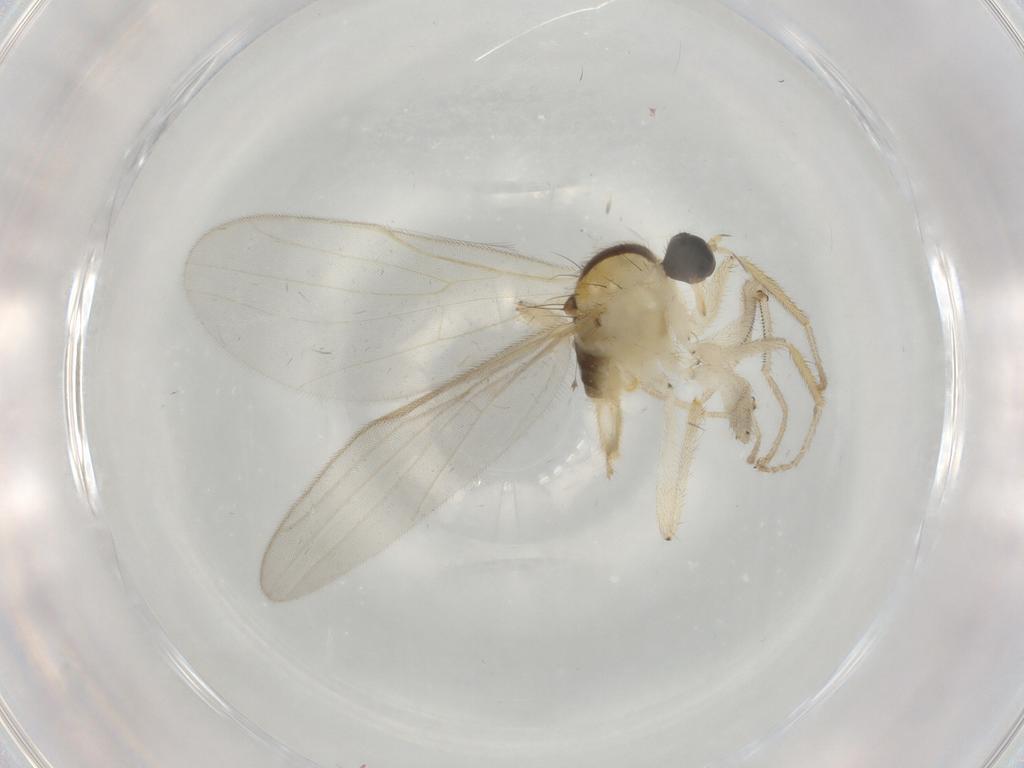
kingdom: Animalia
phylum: Arthropoda
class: Insecta
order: Diptera
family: Hybotidae
